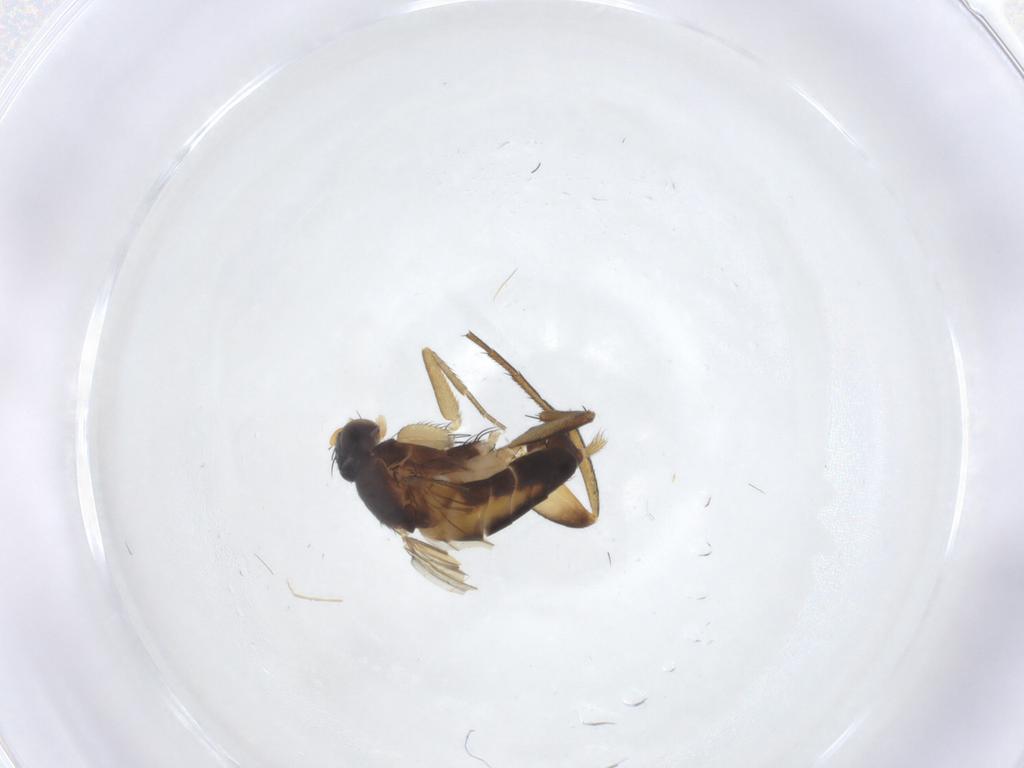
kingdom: Animalia
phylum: Arthropoda
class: Insecta
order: Diptera
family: Phoridae
